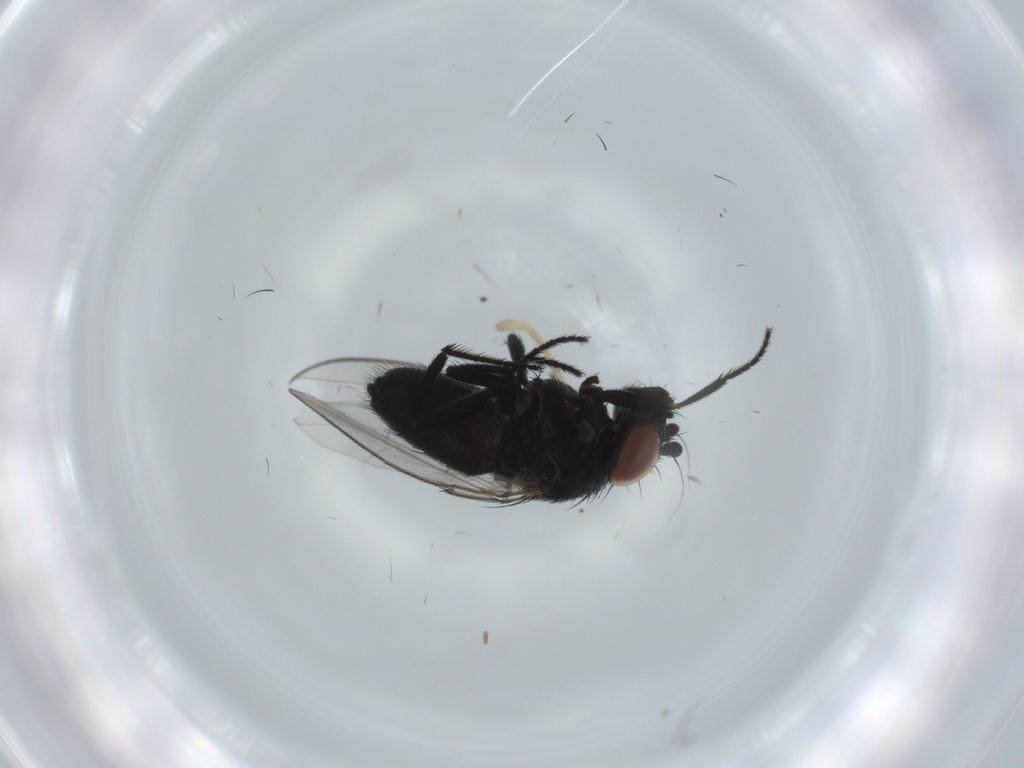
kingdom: Animalia
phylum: Arthropoda
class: Insecta
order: Diptera
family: Milichiidae
